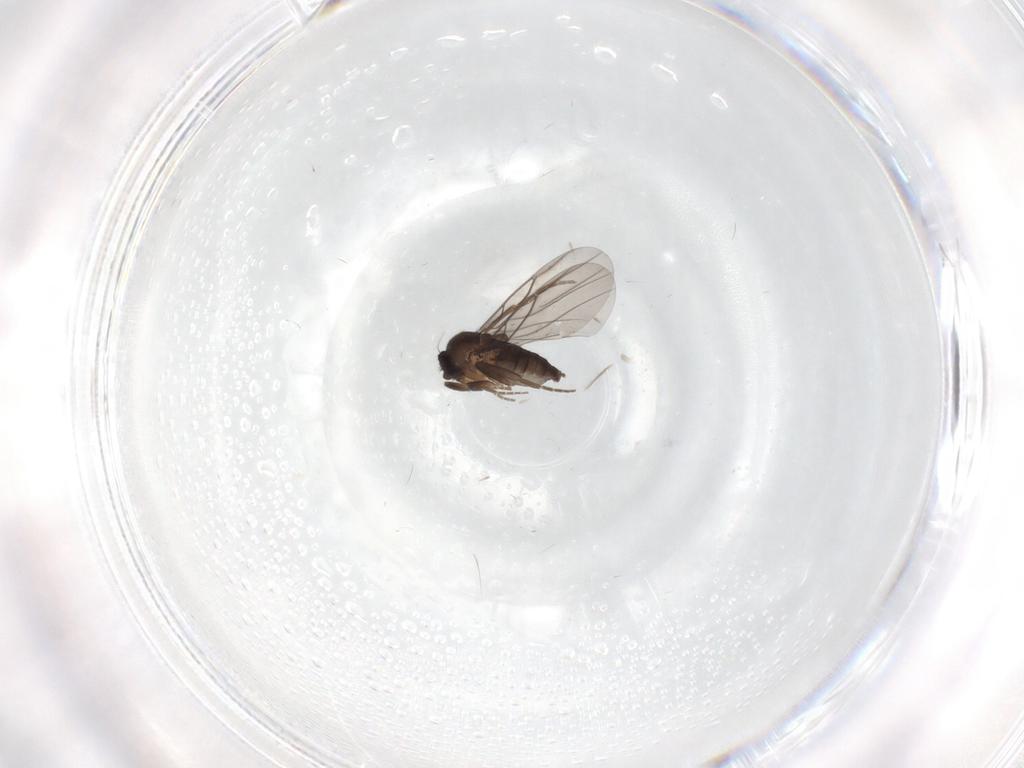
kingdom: Animalia
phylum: Arthropoda
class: Insecta
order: Diptera
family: Drosophilidae
